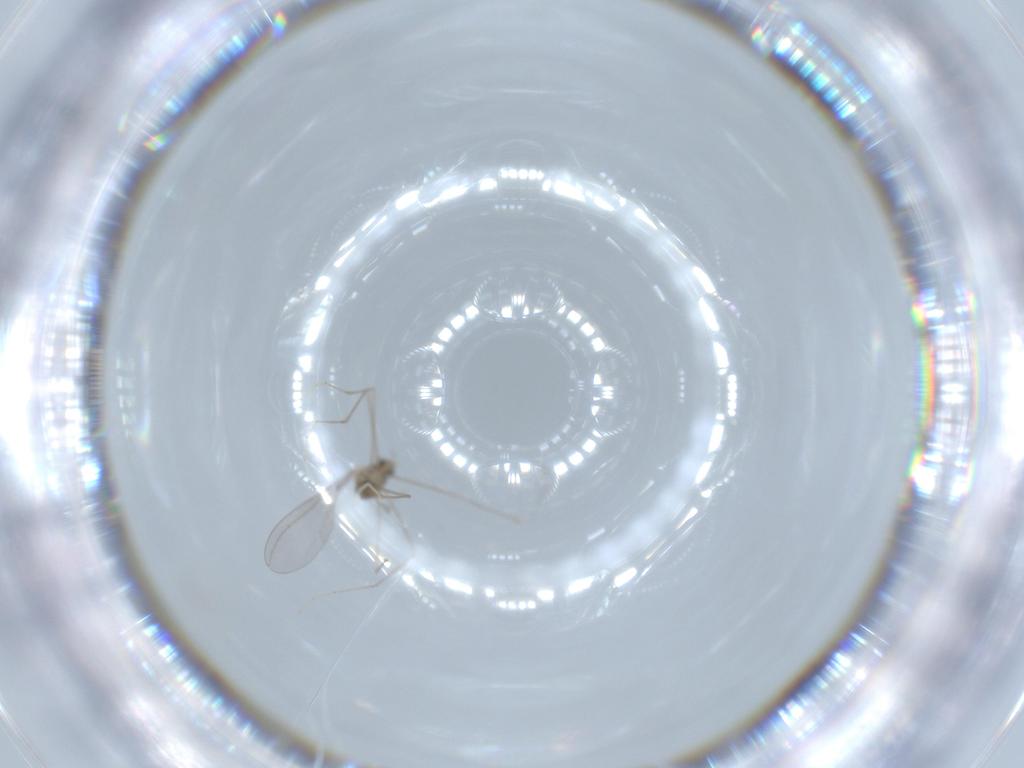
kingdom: Animalia
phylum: Arthropoda
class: Insecta
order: Diptera
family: Cecidomyiidae
